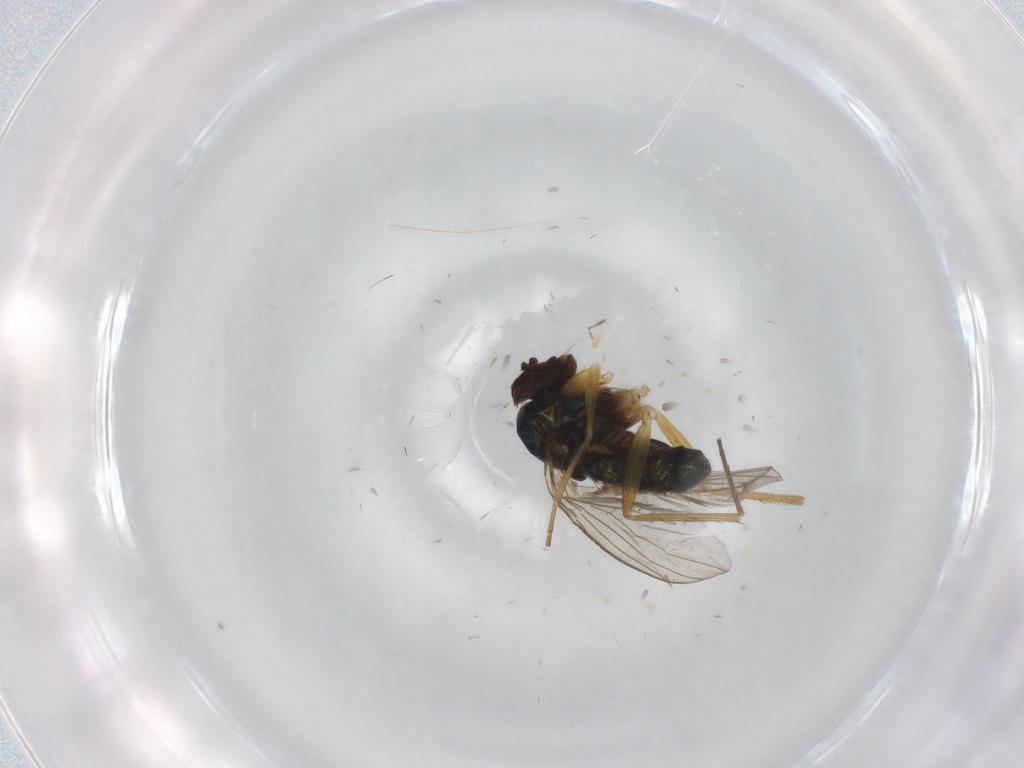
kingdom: Animalia
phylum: Arthropoda
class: Insecta
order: Diptera
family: Dolichopodidae
